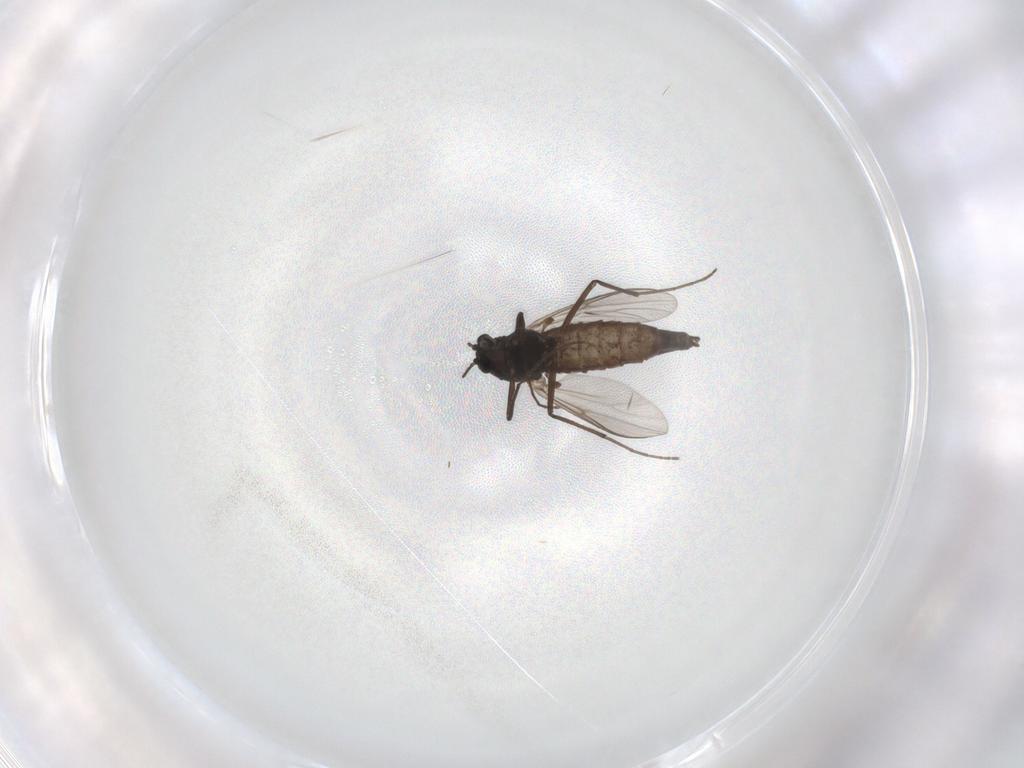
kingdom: Animalia
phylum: Arthropoda
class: Insecta
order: Diptera
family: Chironomidae
